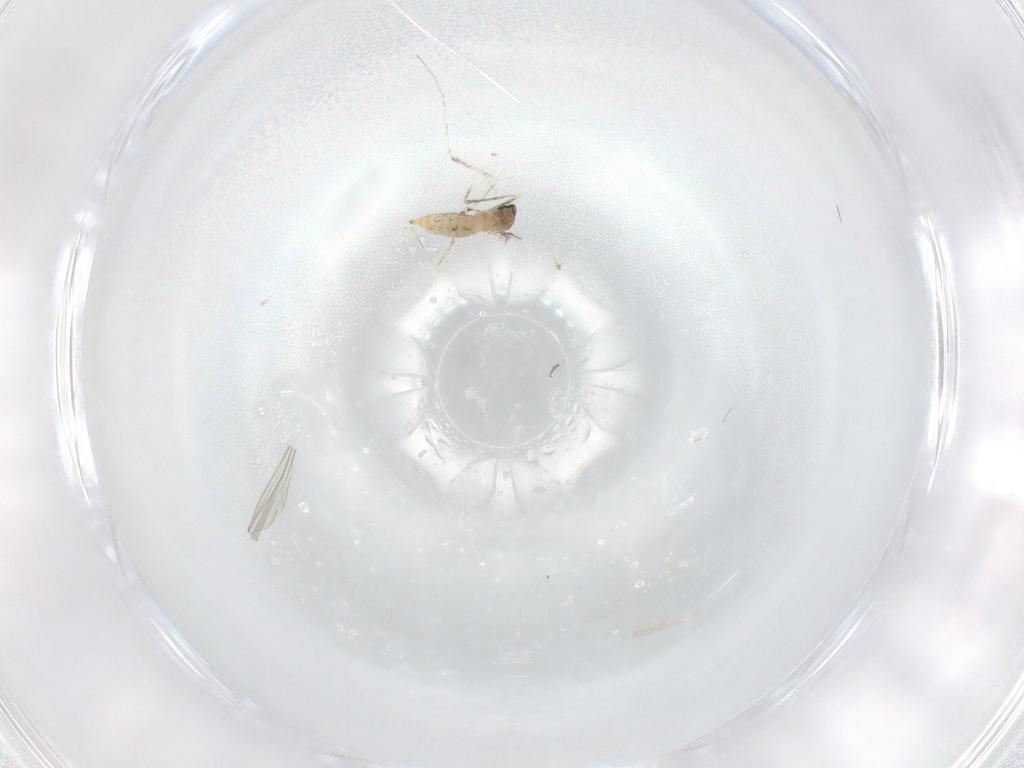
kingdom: Animalia
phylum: Arthropoda
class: Insecta
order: Diptera
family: Cecidomyiidae
